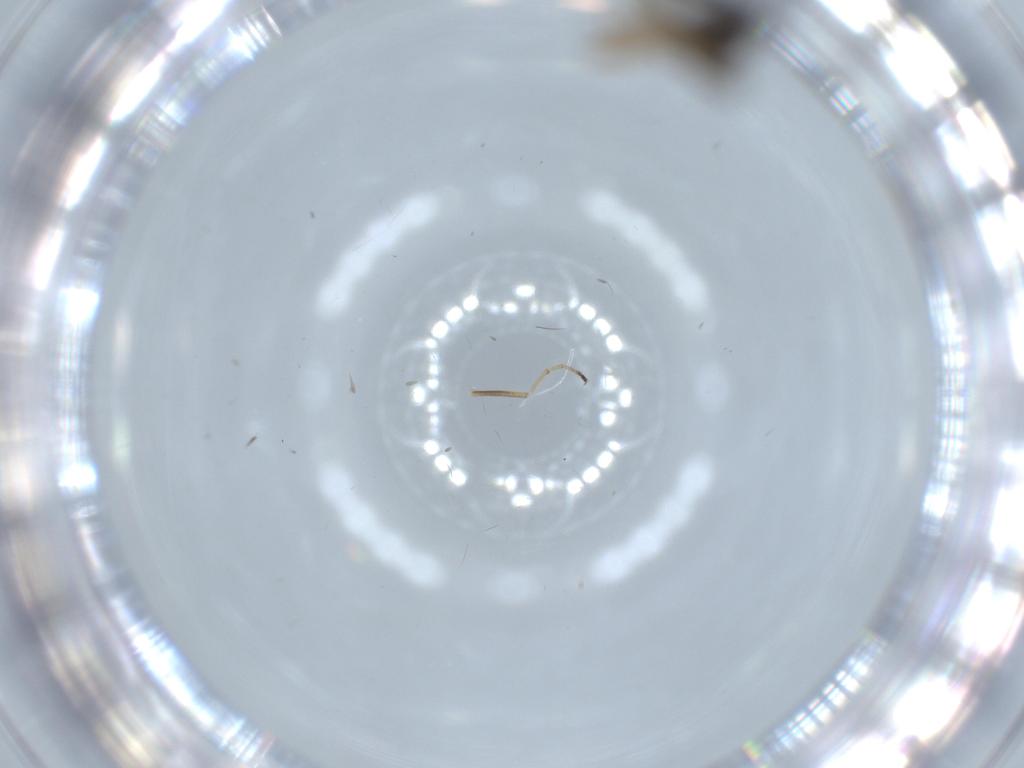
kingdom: Animalia
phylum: Arthropoda
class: Insecta
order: Diptera
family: Hybotidae
